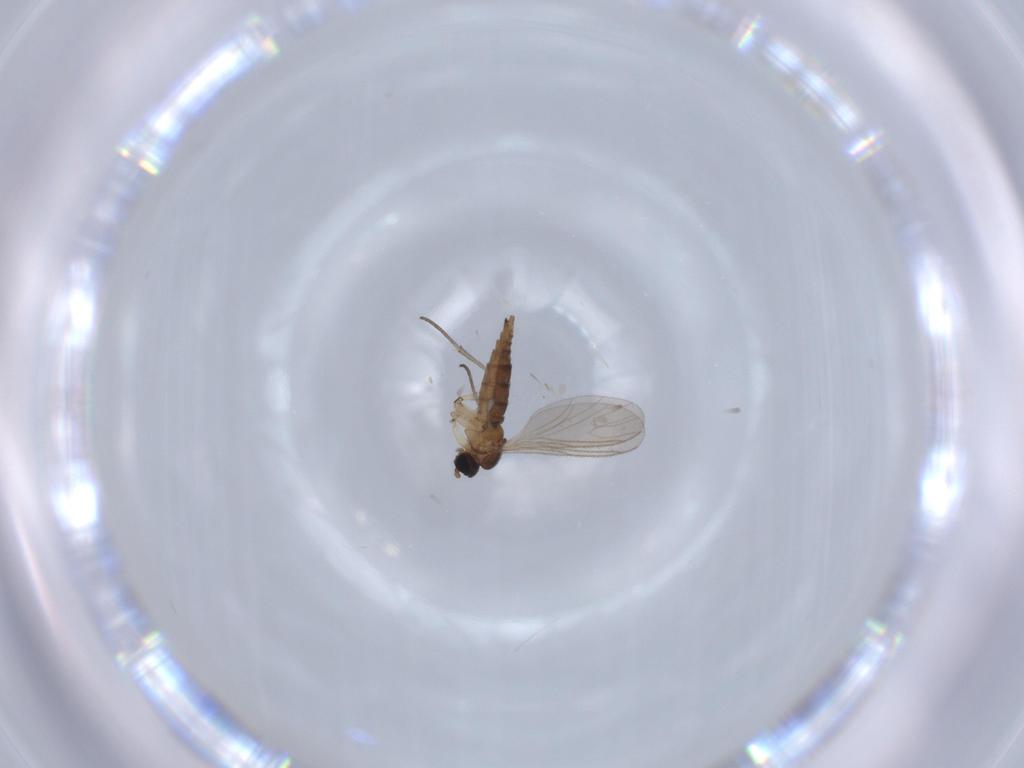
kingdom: Animalia
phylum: Arthropoda
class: Insecta
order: Diptera
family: Sciaridae
